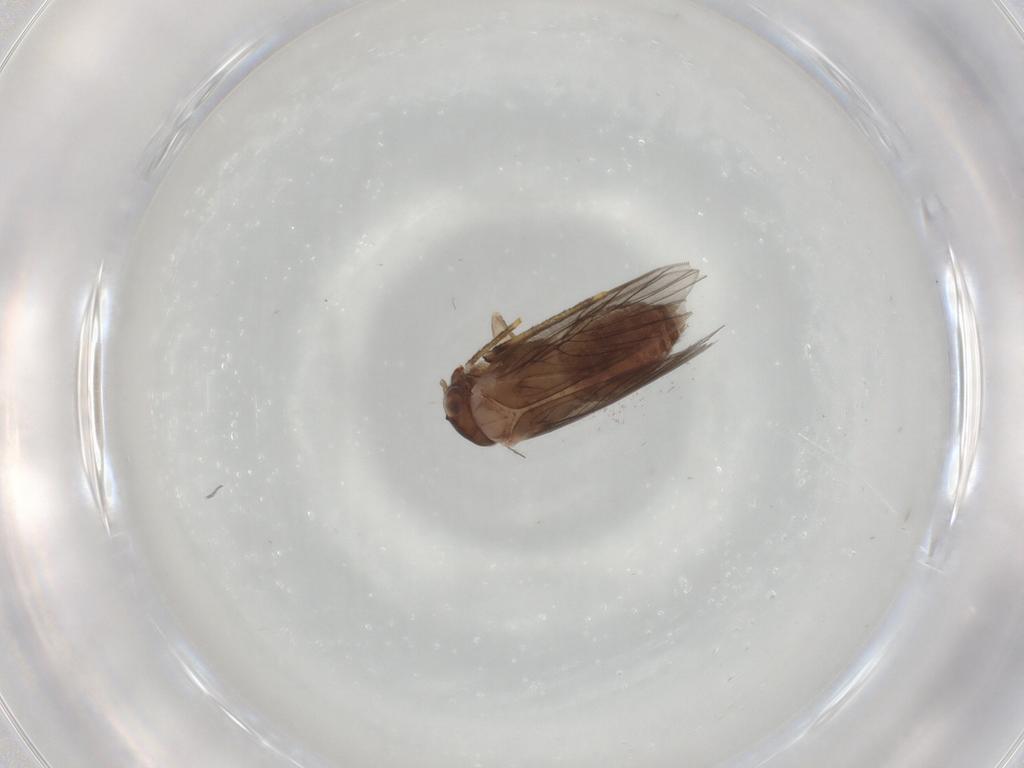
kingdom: Animalia
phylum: Arthropoda
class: Insecta
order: Psocodea
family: Lepidopsocidae
